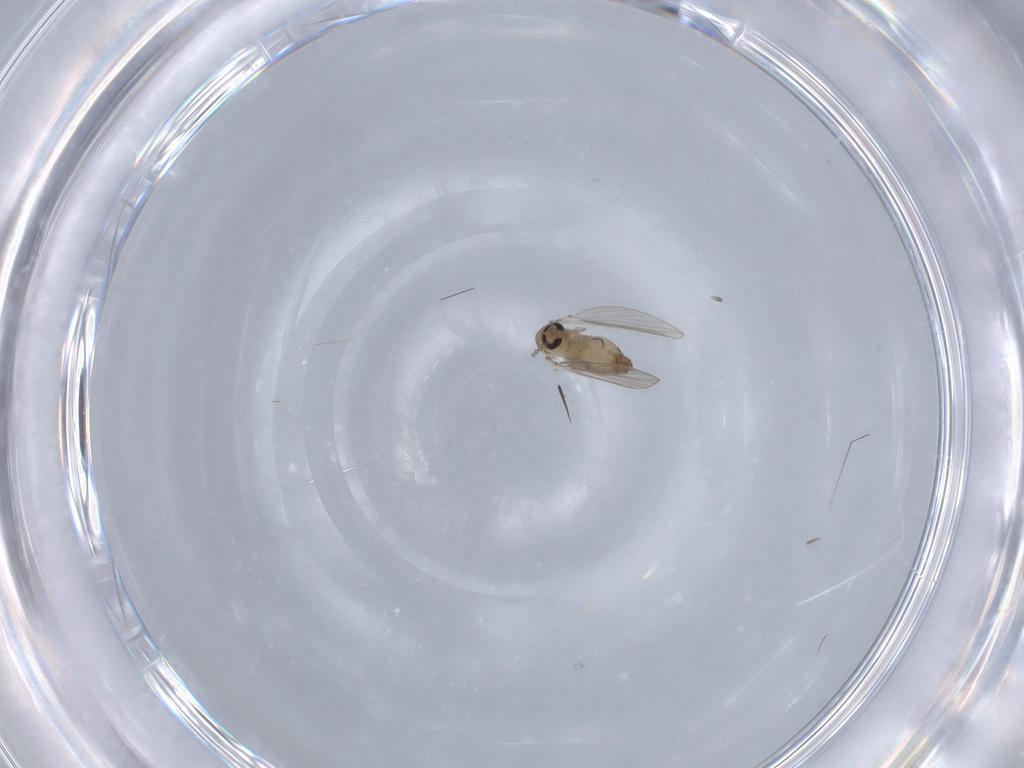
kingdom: Animalia
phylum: Arthropoda
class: Insecta
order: Diptera
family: Psychodidae
